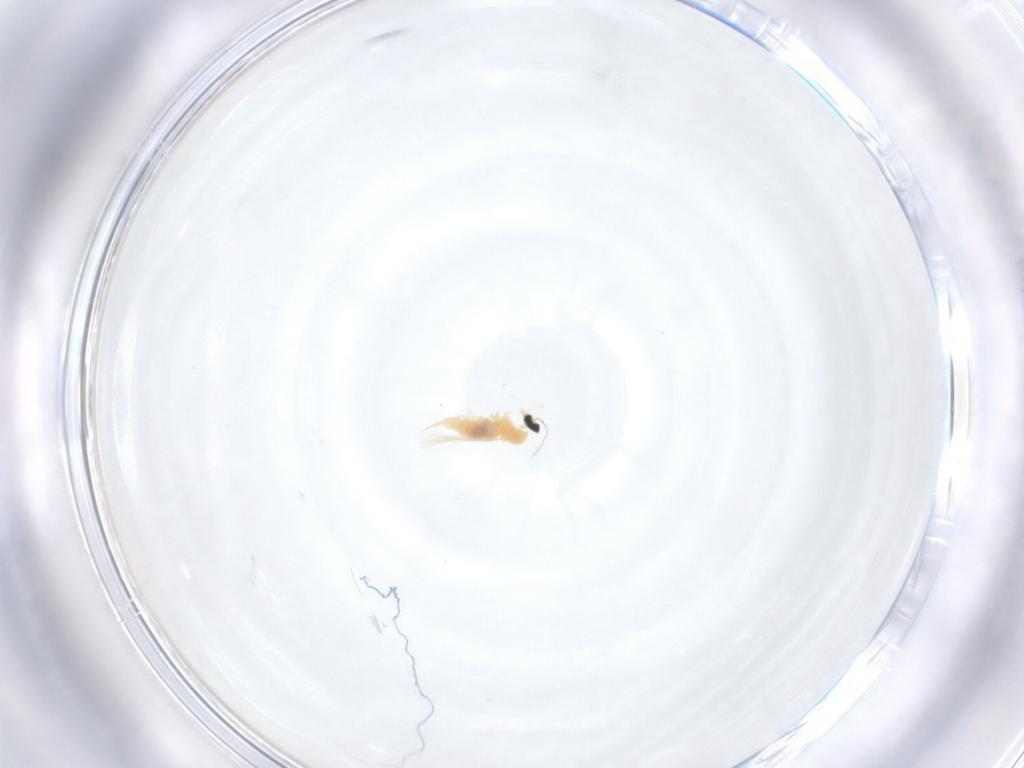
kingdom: Animalia
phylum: Arthropoda
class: Insecta
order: Diptera
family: Cecidomyiidae
